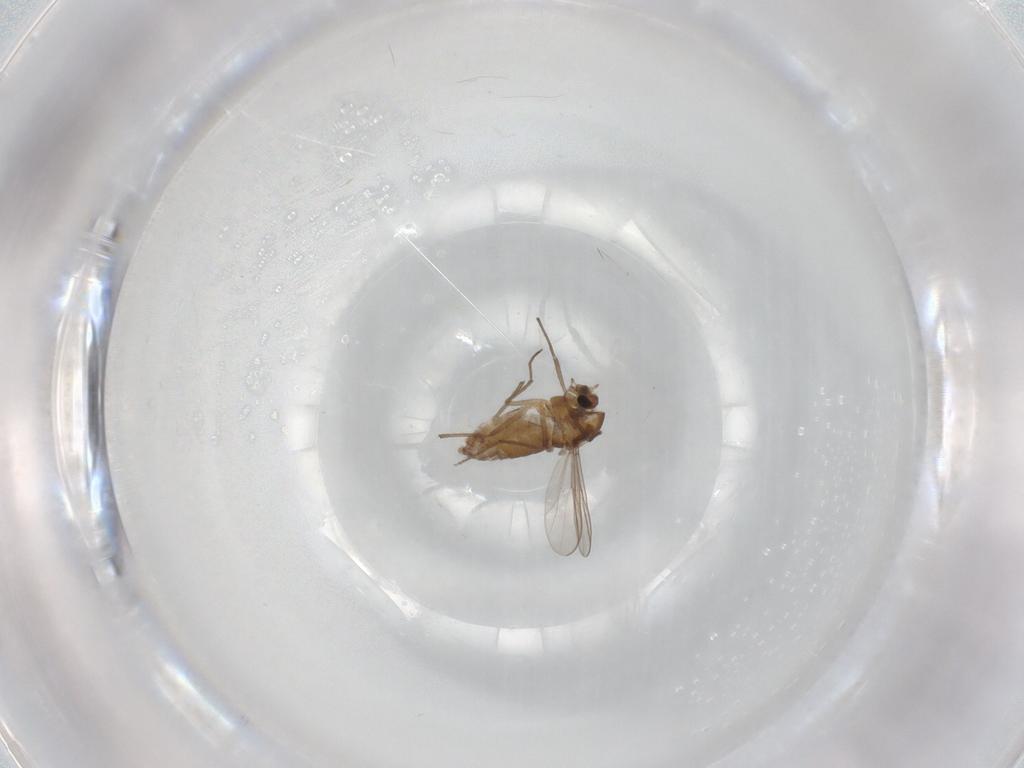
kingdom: Animalia
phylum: Arthropoda
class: Insecta
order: Diptera
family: Chironomidae
